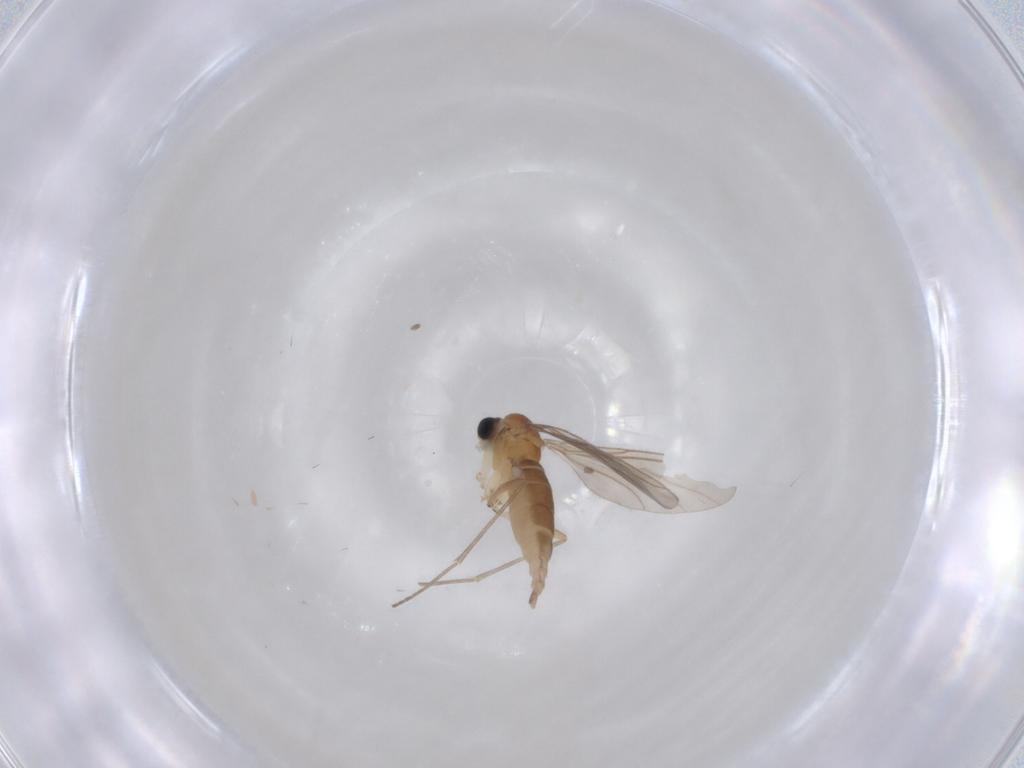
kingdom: Animalia
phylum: Arthropoda
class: Insecta
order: Diptera
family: Sciaridae
